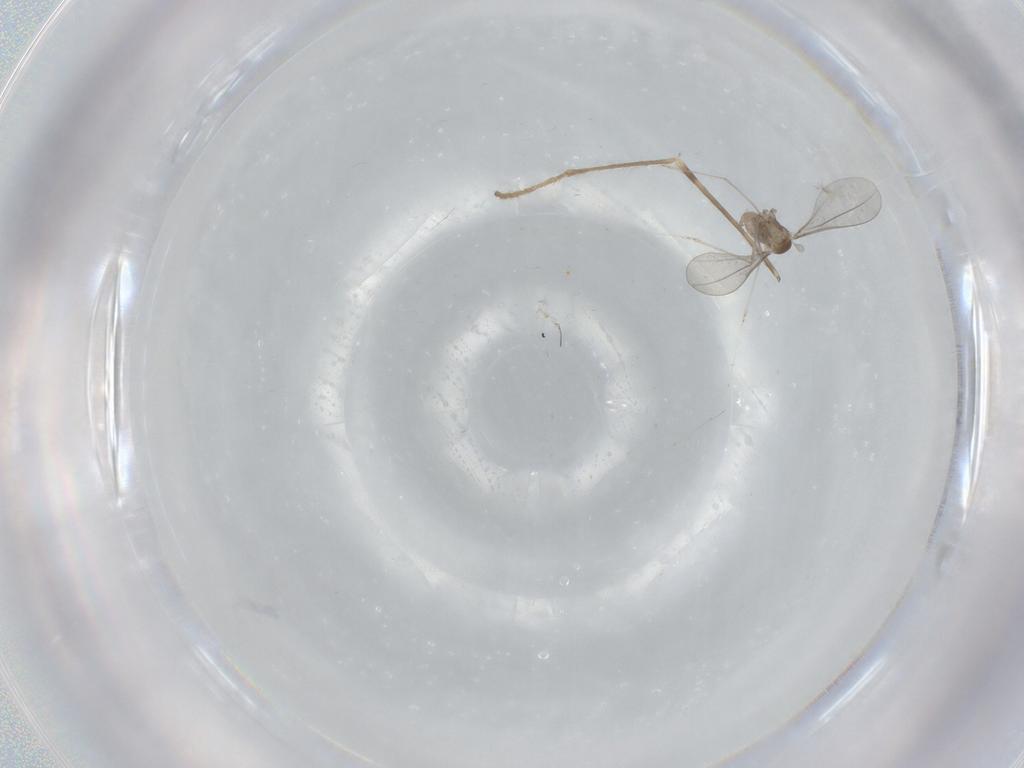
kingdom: Animalia
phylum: Arthropoda
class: Insecta
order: Diptera
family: Cecidomyiidae
